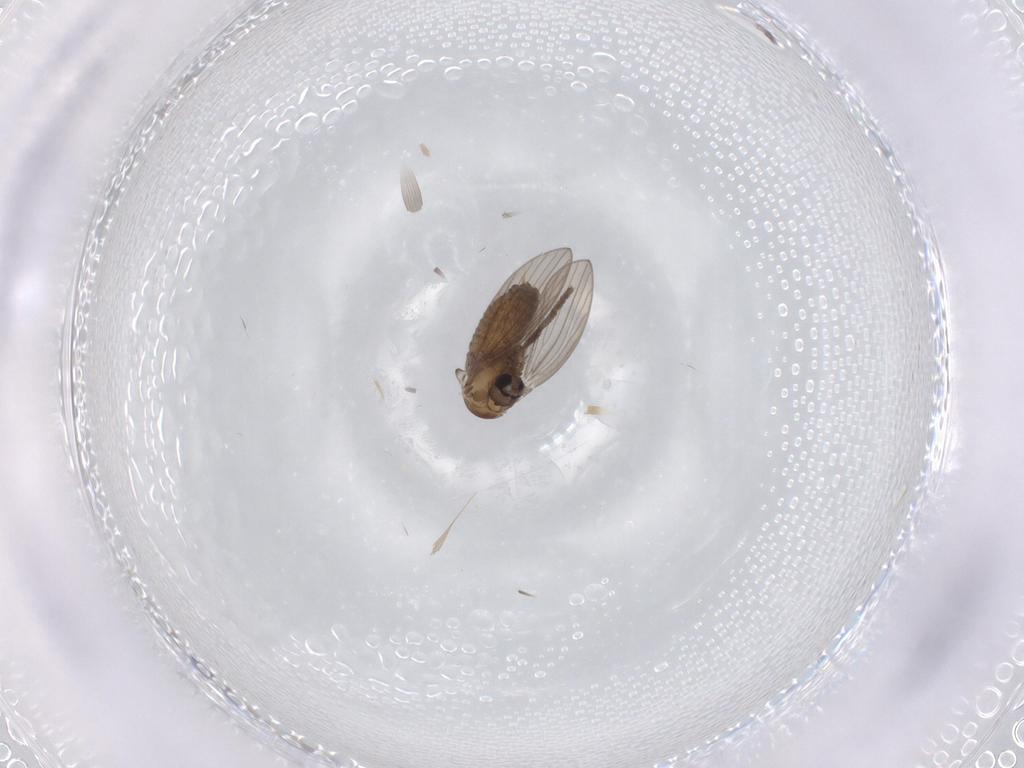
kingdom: Animalia
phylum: Arthropoda
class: Insecta
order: Diptera
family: Psychodidae
